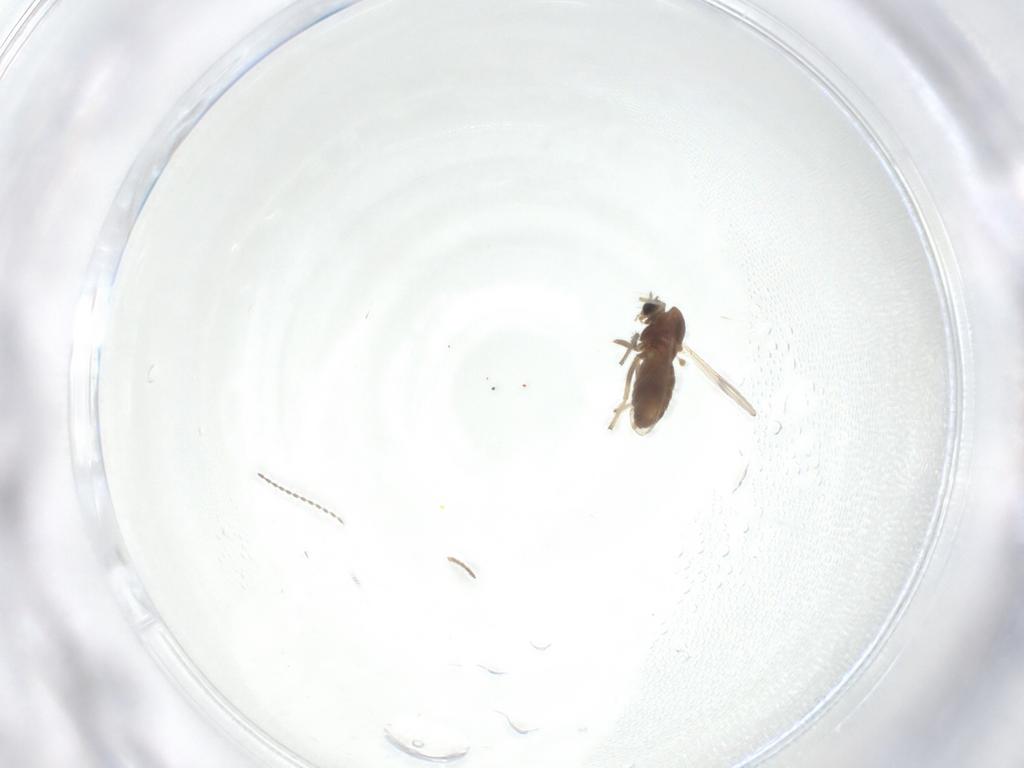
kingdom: Animalia
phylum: Arthropoda
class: Insecta
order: Diptera
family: Chironomidae
